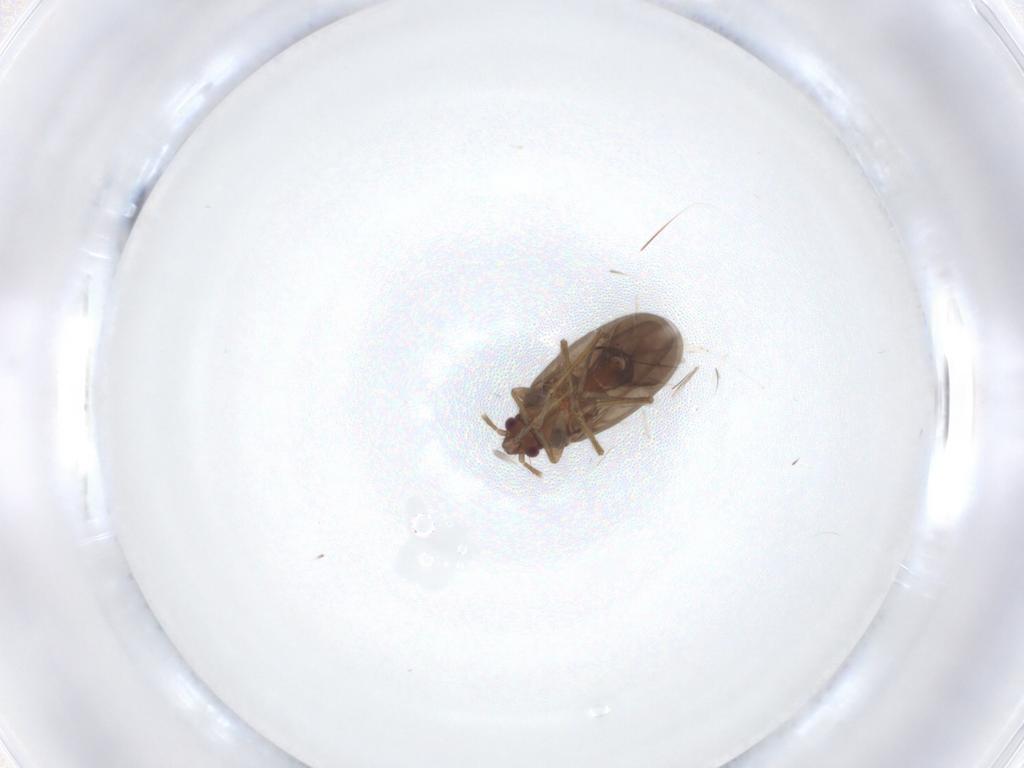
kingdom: Animalia
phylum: Arthropoda
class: Insecta
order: Hemiptera
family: Ceratocombidae
